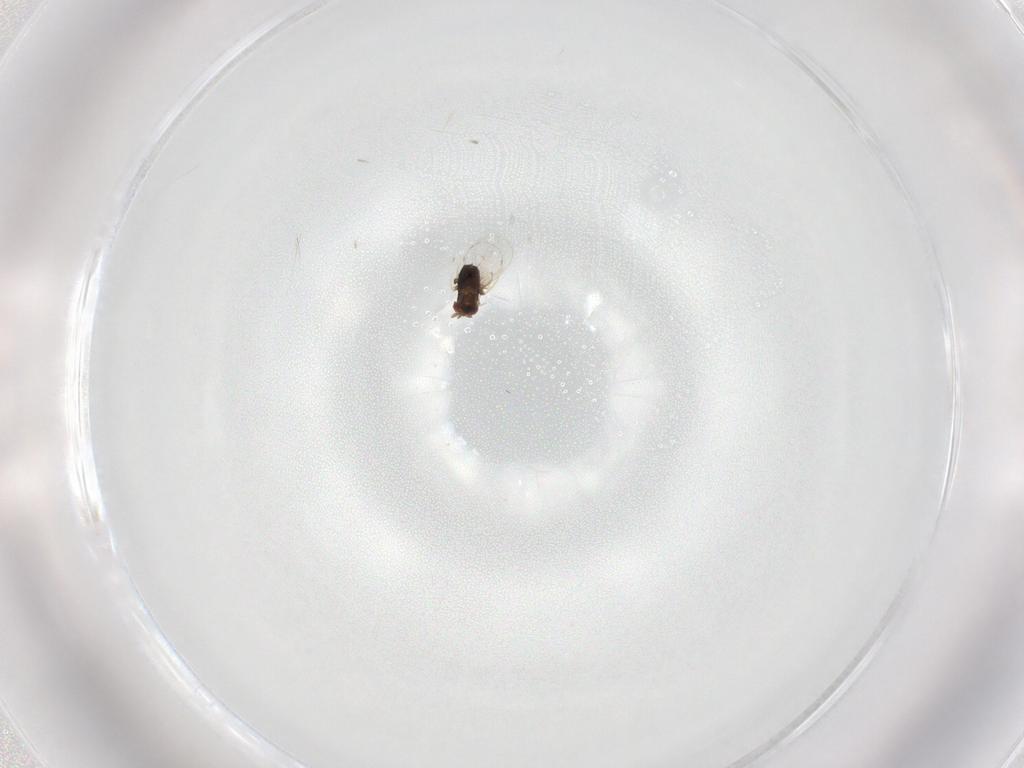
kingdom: Animalia
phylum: Arthropoda
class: Insecta
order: Hymenoptera
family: Trichogrammatidae
